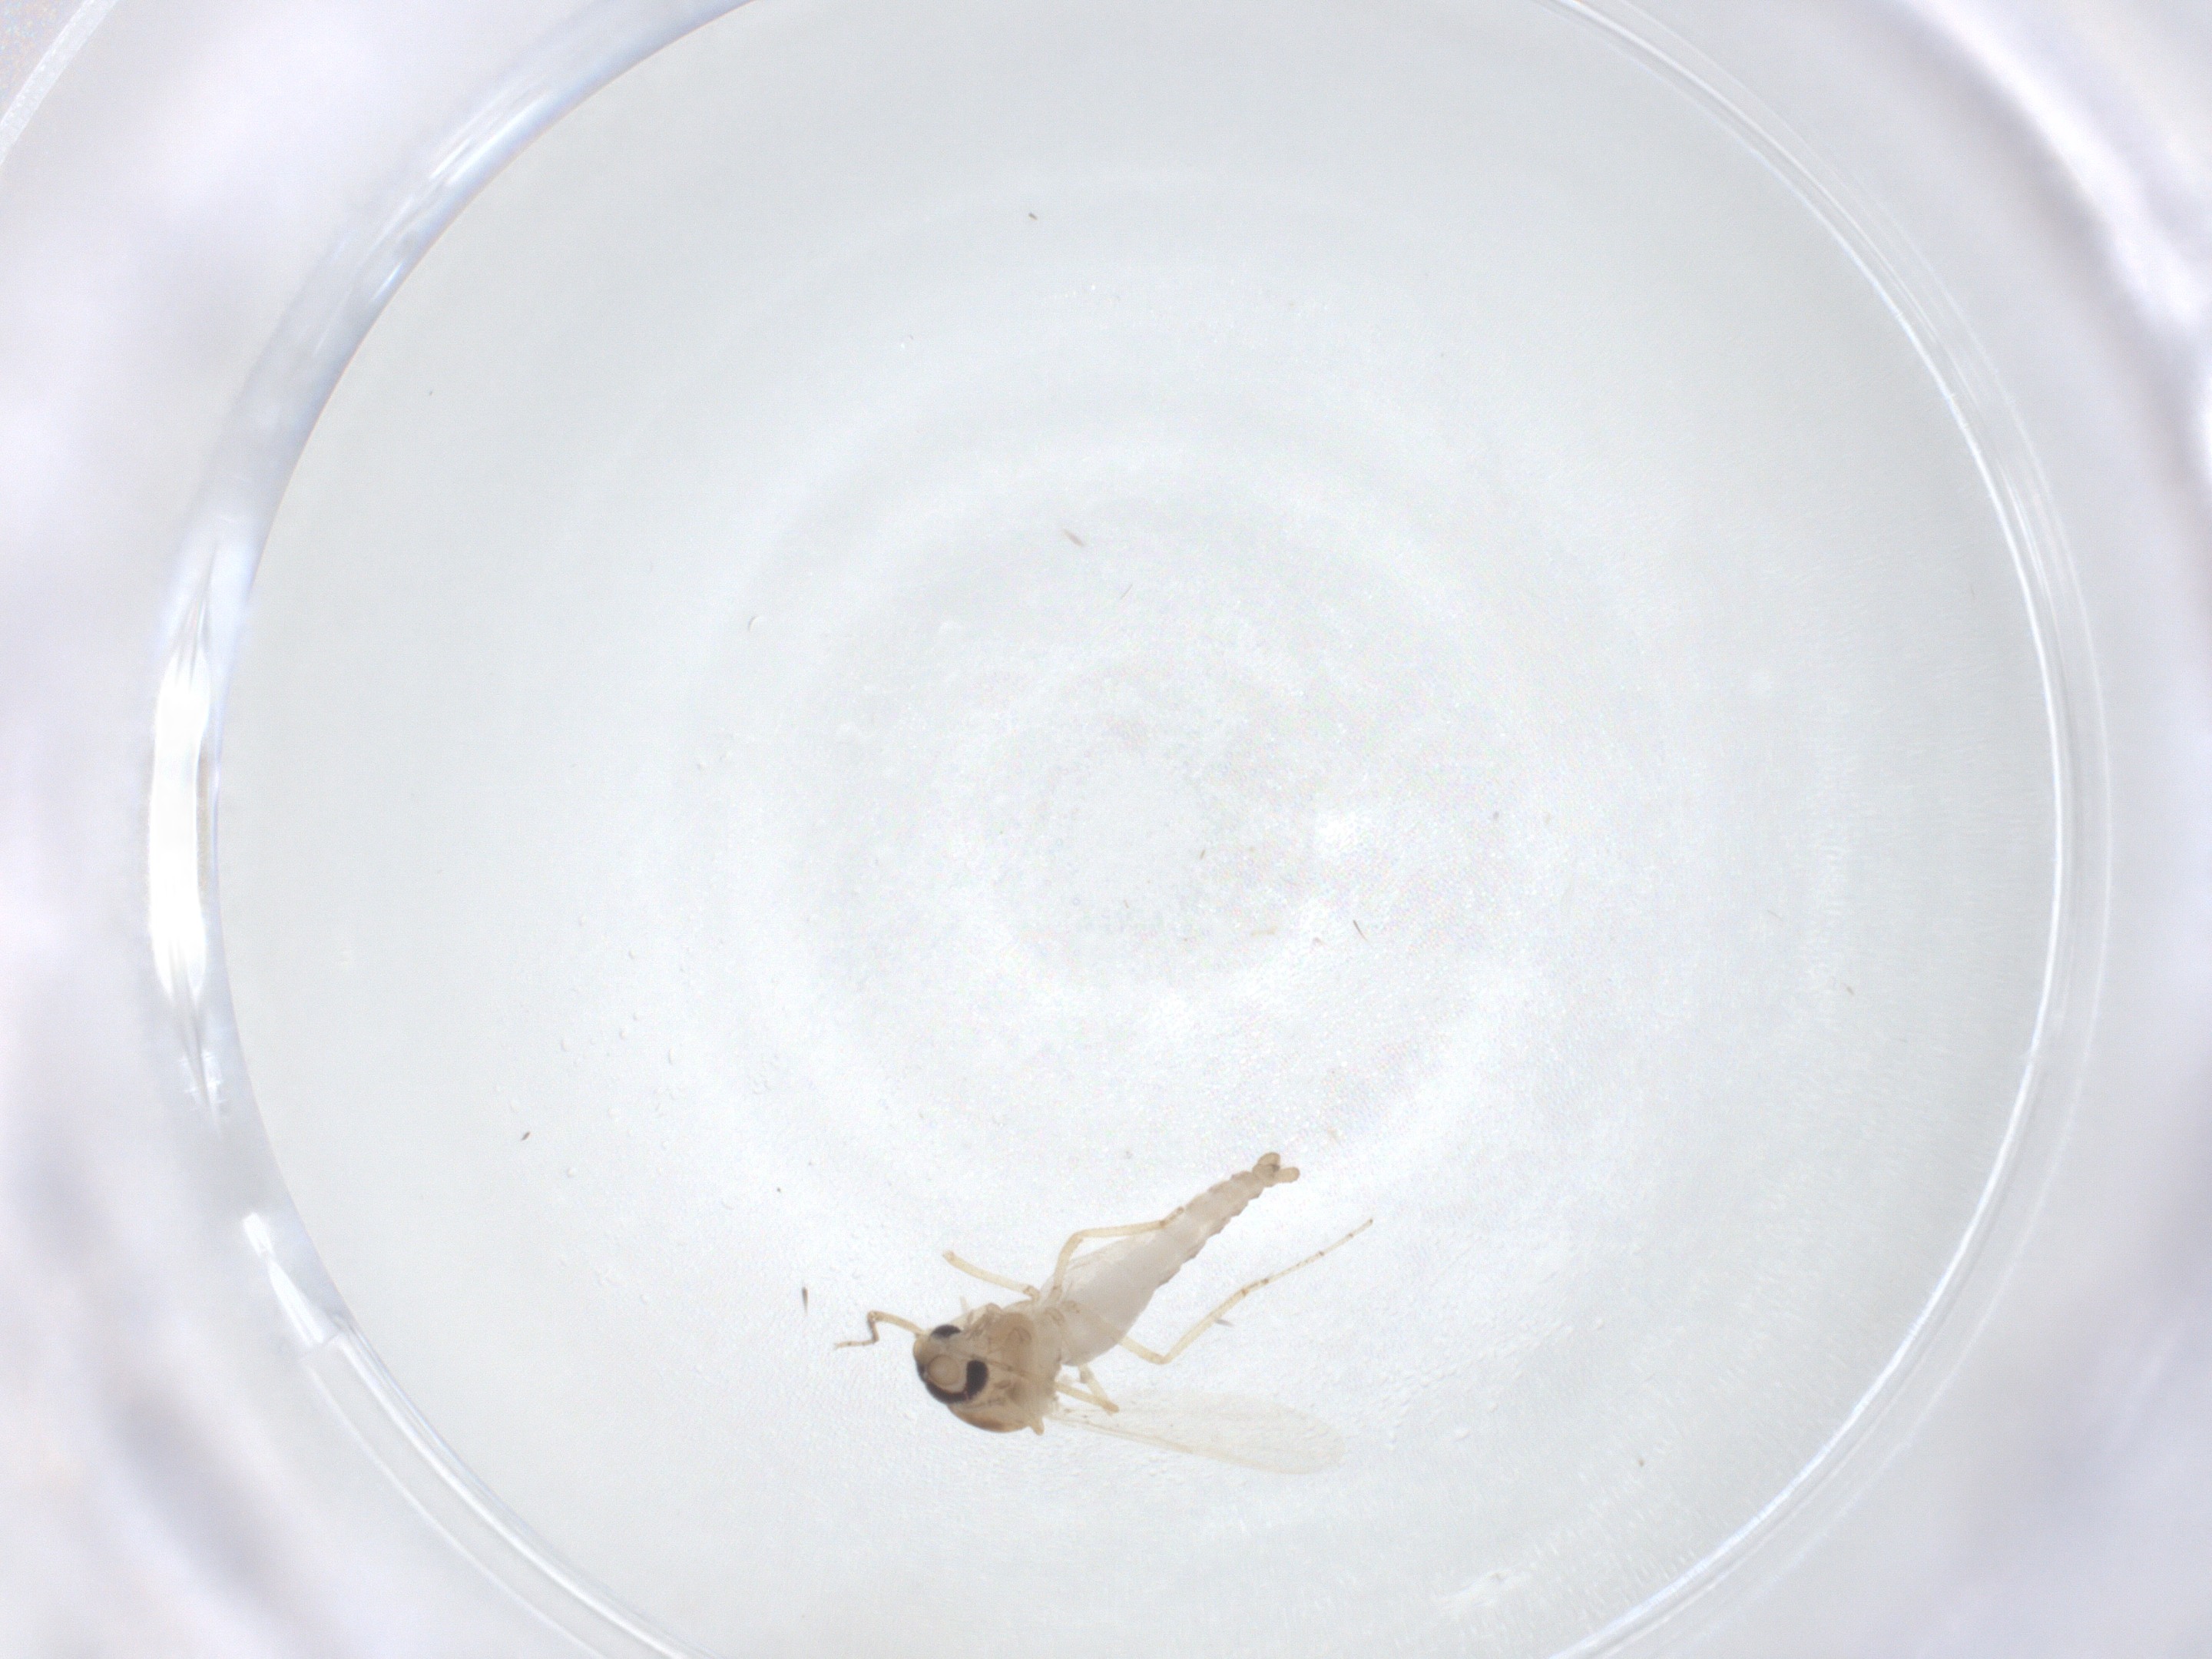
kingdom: Animalia
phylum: Arthropoda
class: Insecta
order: Diptera
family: Ceratopogonidae
